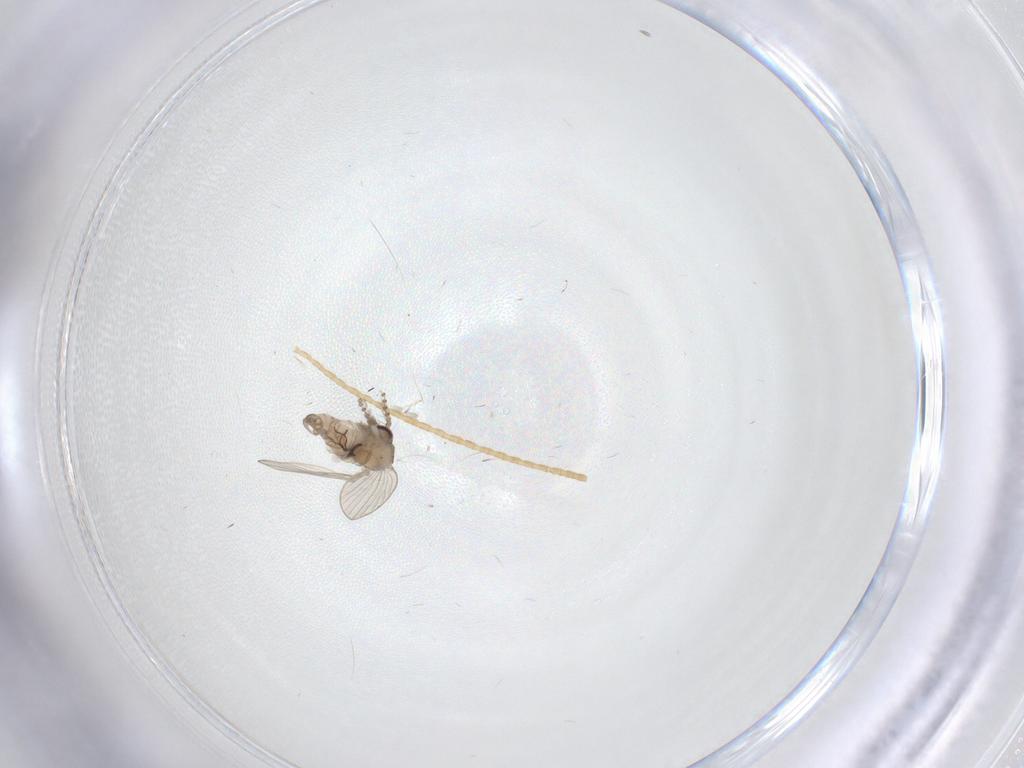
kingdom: Animalia
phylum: Arthropoda
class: Insecta
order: Diptera
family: Psychodidae
